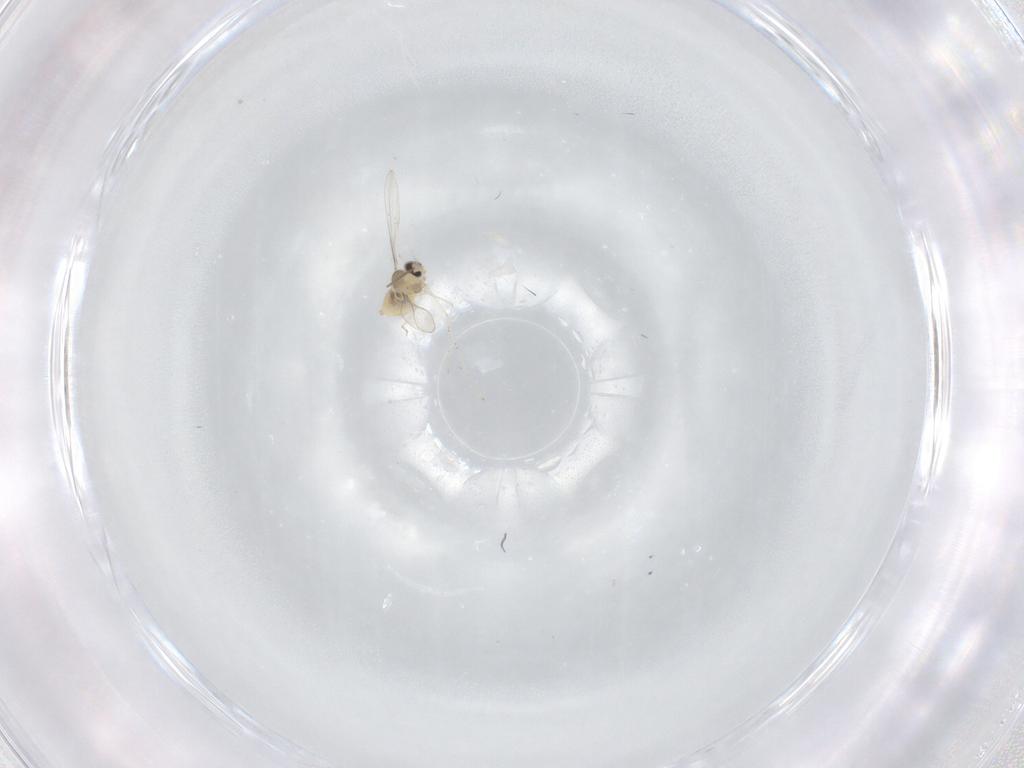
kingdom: Animalia
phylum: Arthropoda
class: Insecta
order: Diptera
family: Limoniidae
